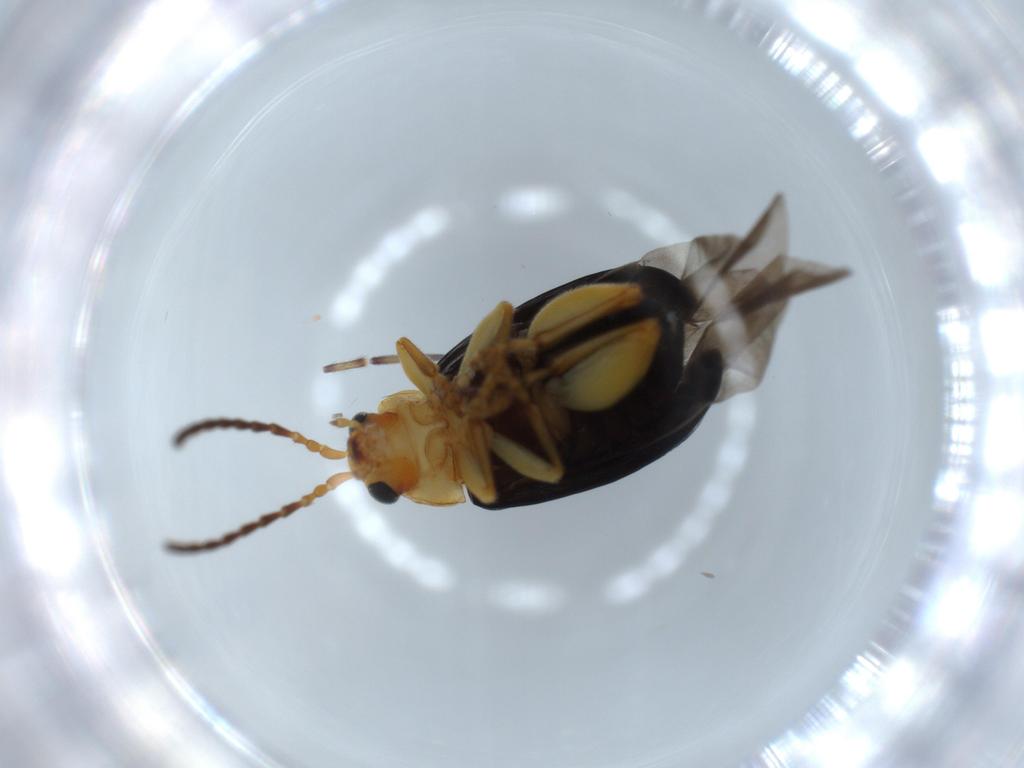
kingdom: Animalia
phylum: Arthropoda
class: Insecta
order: Coleoptera
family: Chrysomelidae
